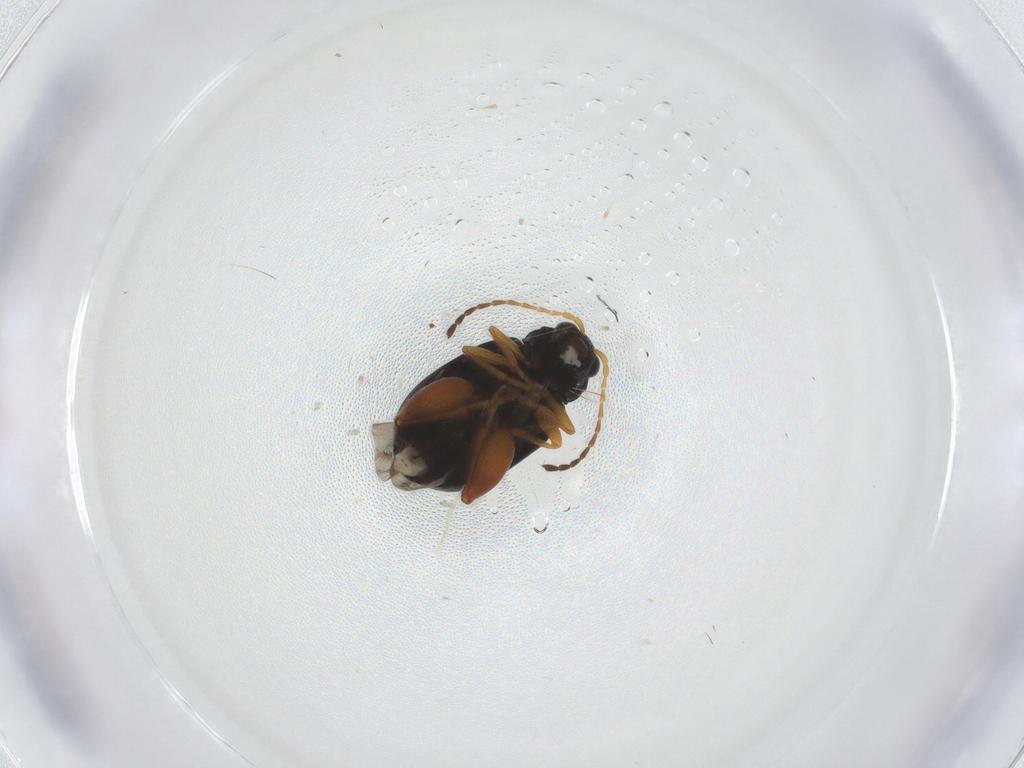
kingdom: Animalia
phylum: Arthropoda
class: Insecta
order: Coleoptera
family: Chrysomelidae
